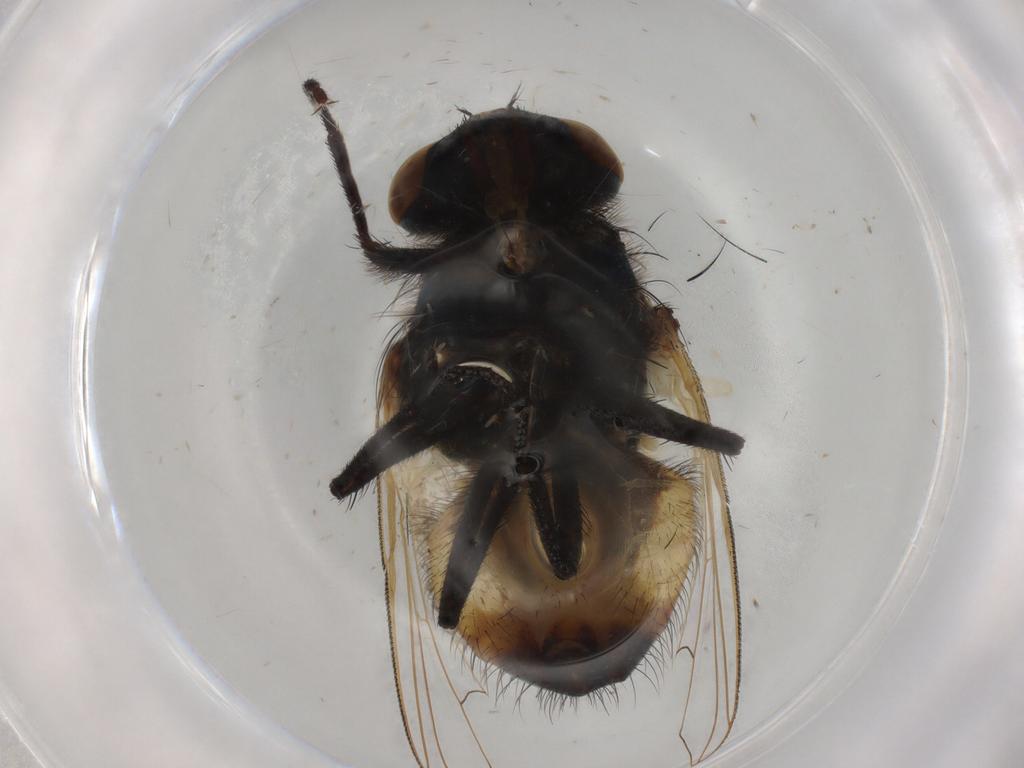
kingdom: Animalia
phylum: Arthropoda
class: Insecta
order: Diptera
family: Muscidae
